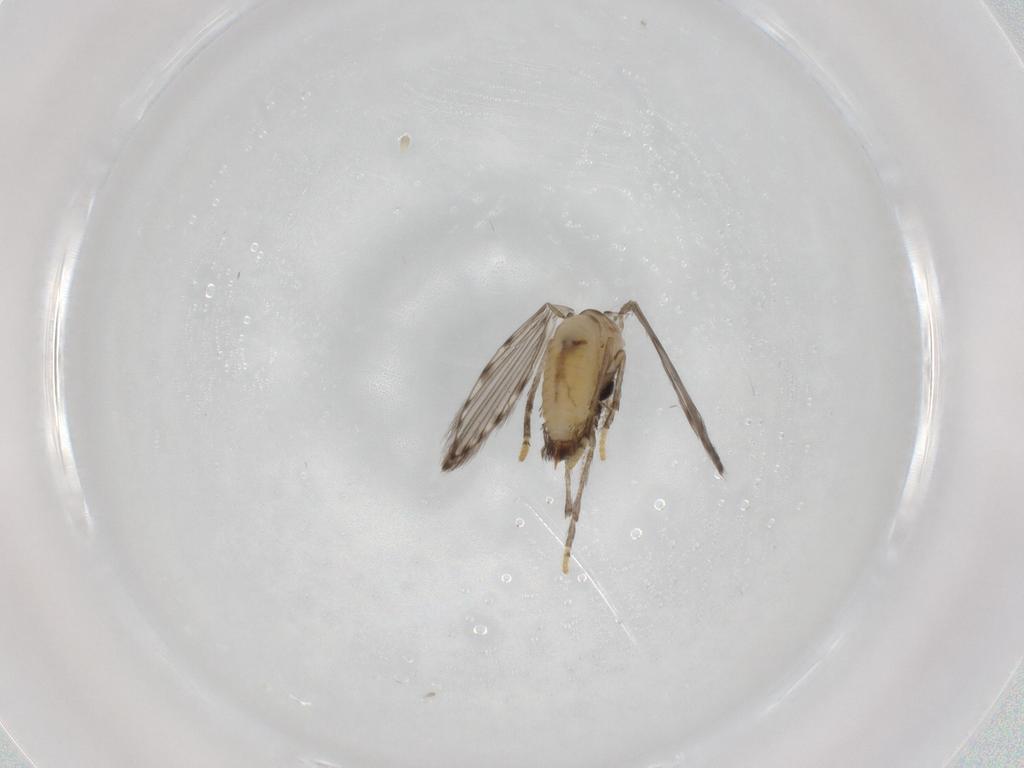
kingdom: Animalia
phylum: Arthropoda
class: Insecta
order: Diptera
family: Psychodidae
